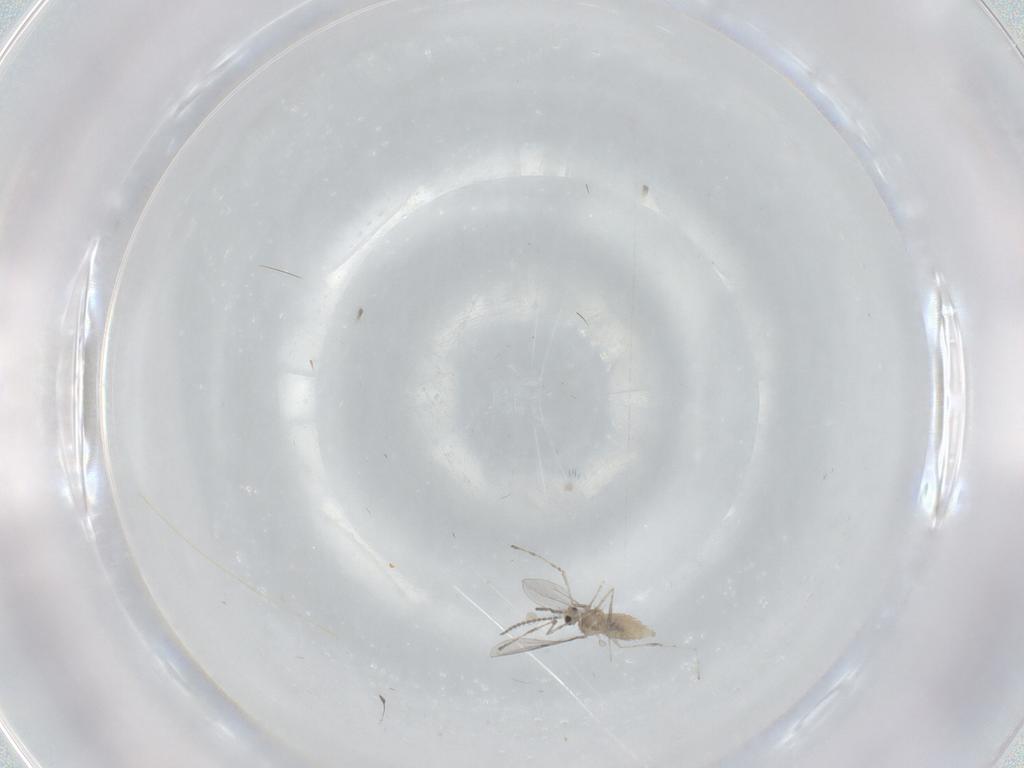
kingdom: Animalia
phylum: Arthropoda
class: Insecta
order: Diptera
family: Cecidomyiidae
